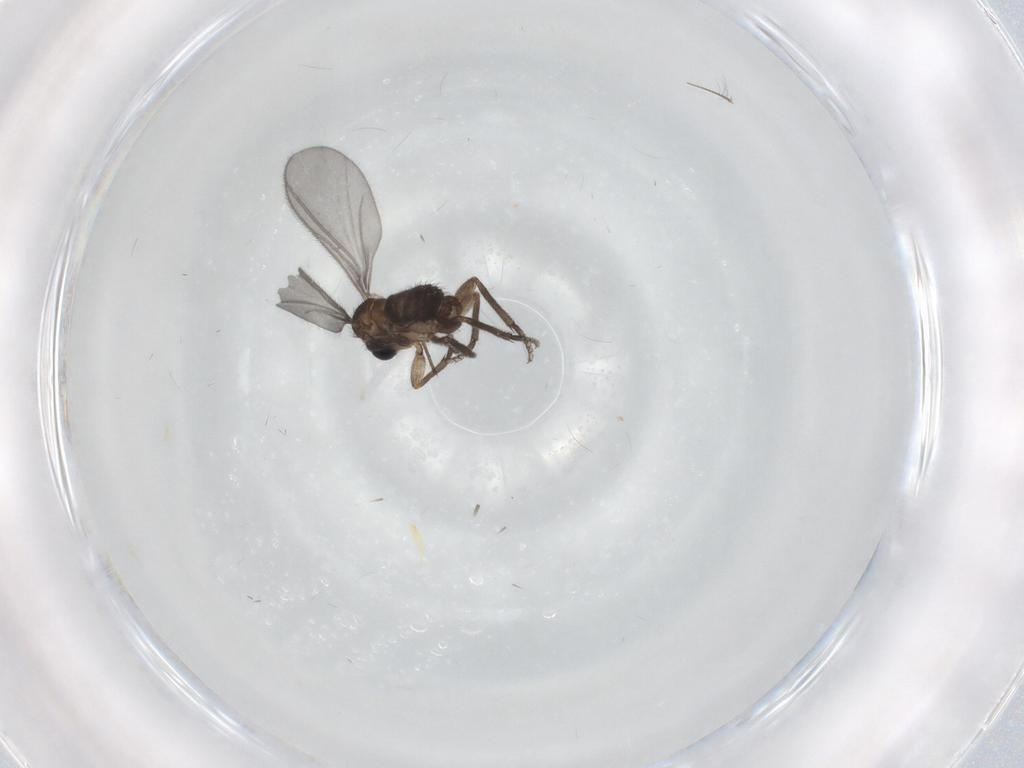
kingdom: Animalia
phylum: Arthropoda
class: Insecta
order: Diptera
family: Sciaridae
